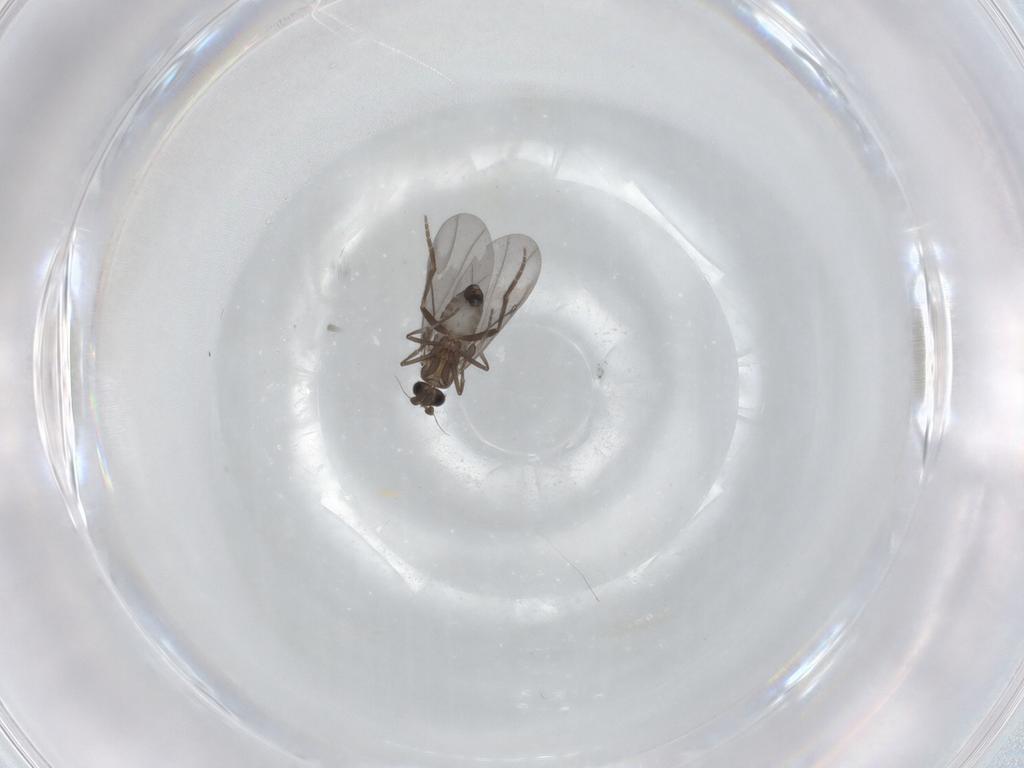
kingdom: Animalia
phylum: Arthropoda
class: Insecta
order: Diptera
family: Phoridae
